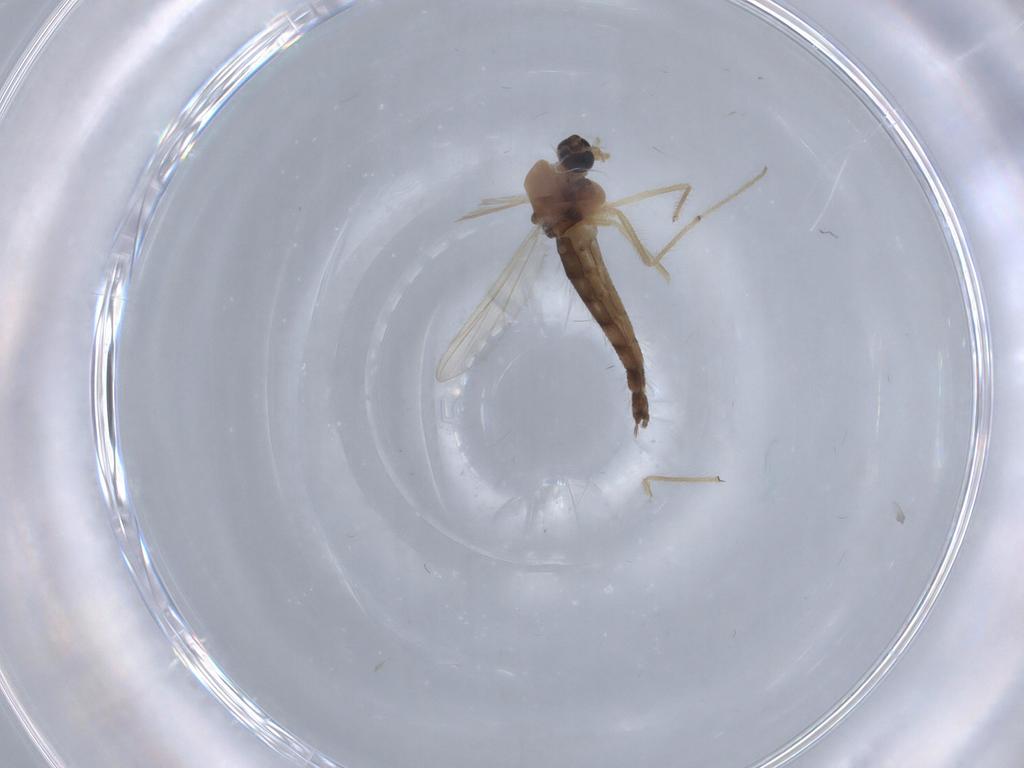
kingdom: Animalia
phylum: Arthropoda
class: Insecta
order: Diptera
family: Chironomidae
